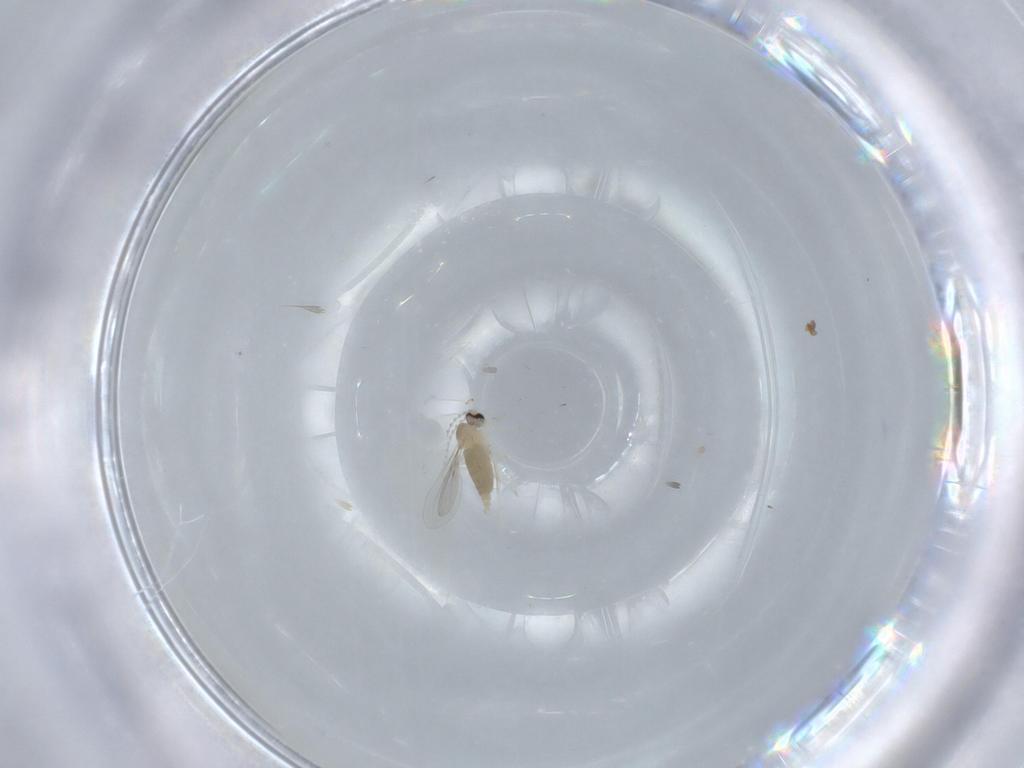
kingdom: Animalia
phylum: Arthropoda
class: Insecta
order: Diptera
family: Cecidomyiidae
